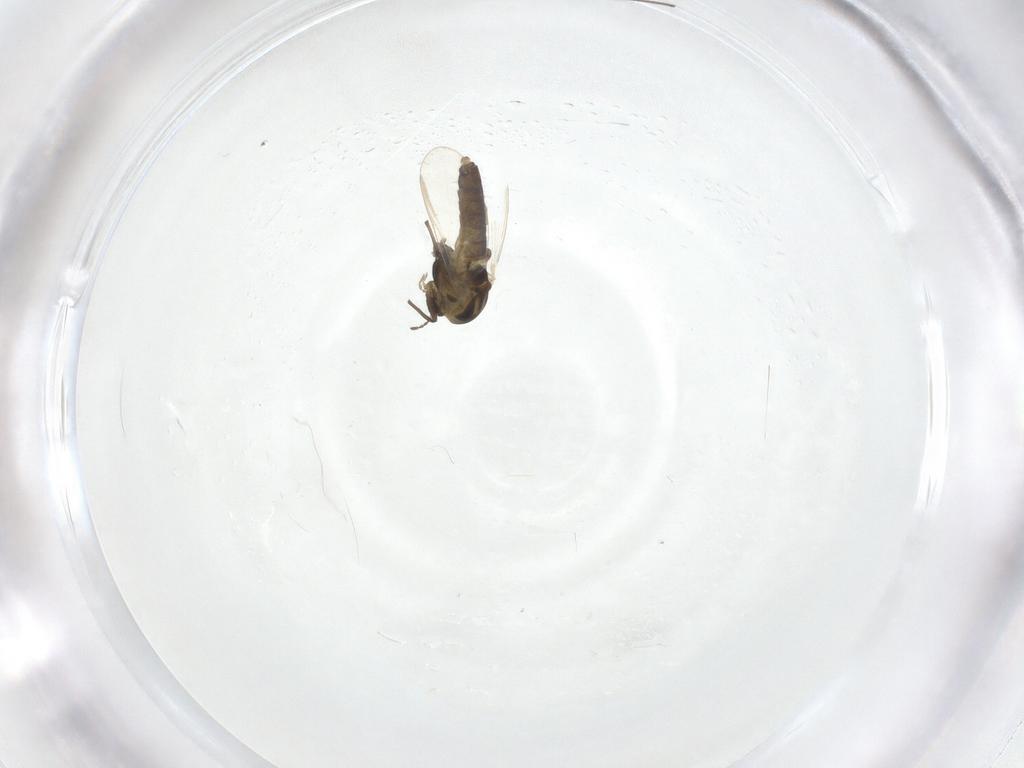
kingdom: Animalia
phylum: Arthropoda
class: Insecta
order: Diptera
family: Chironomidae
